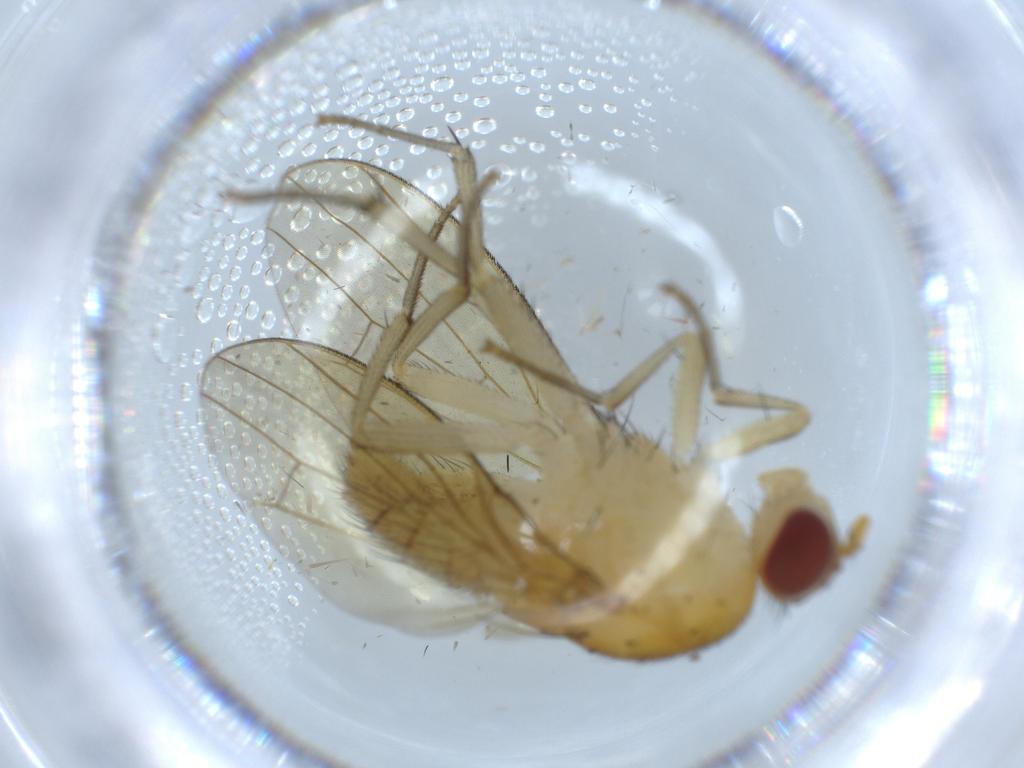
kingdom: Animalia
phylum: Arthropoda
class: Insecta
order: Diptera
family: Lauxaniidae
